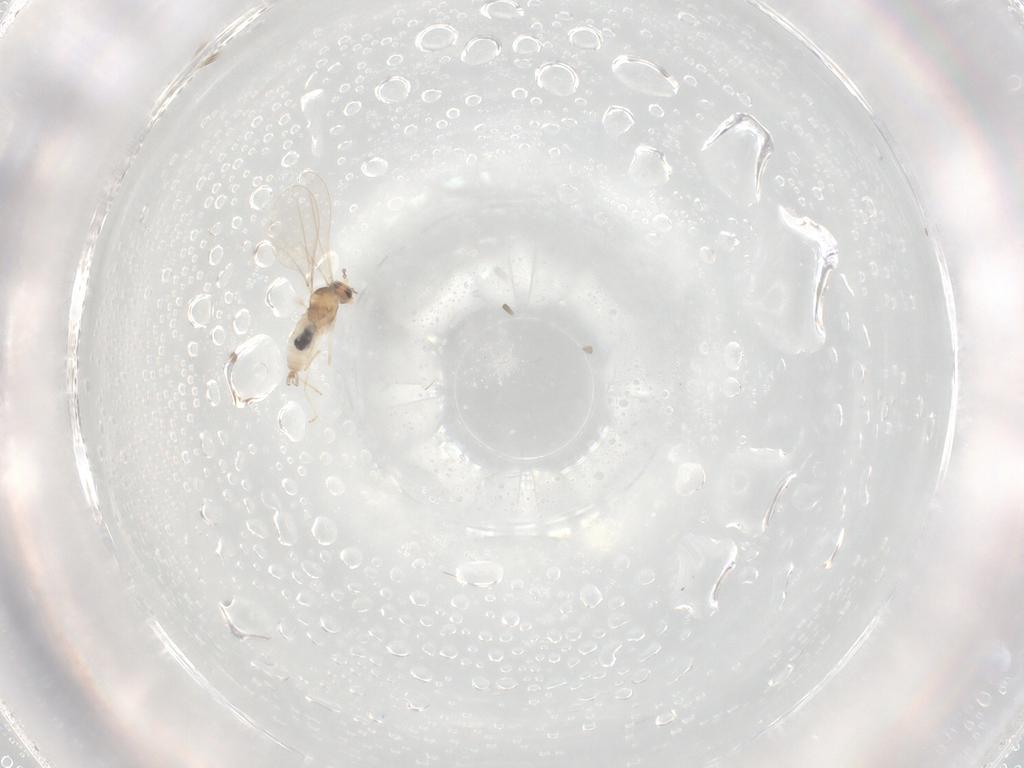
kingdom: Animalia
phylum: Arthropoda
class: Insecta
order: Diptera
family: Cecidomyiidae
